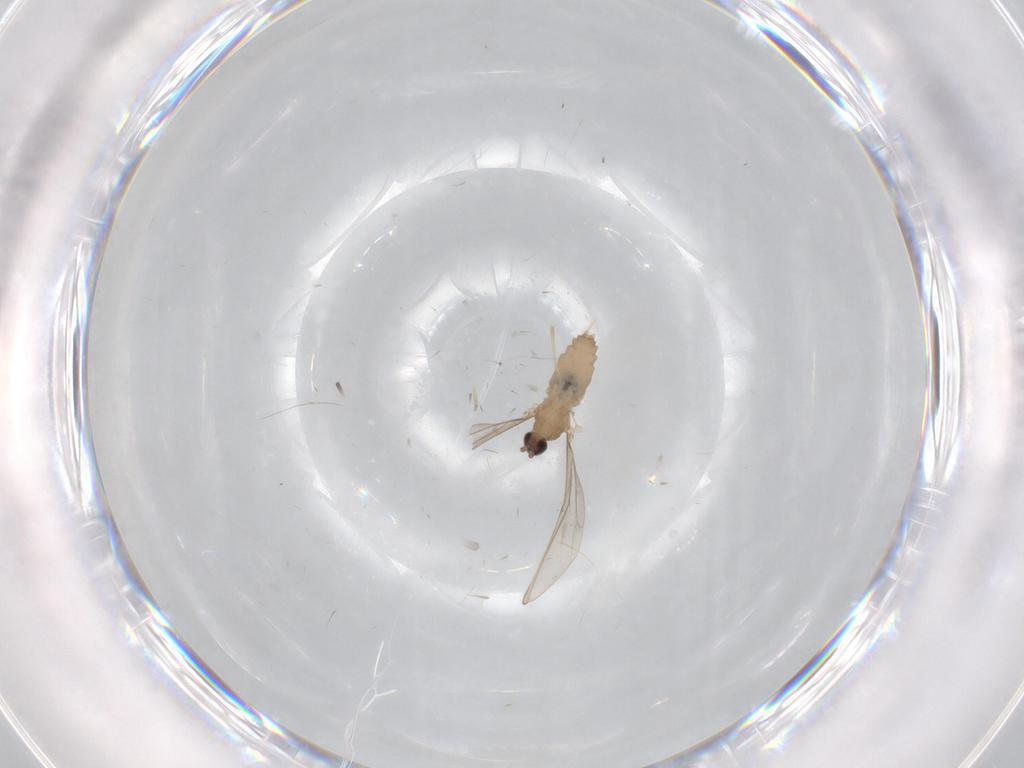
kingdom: Animalia
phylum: Arthropoda
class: Insecta
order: Diptera
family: Cecidomyiidae
